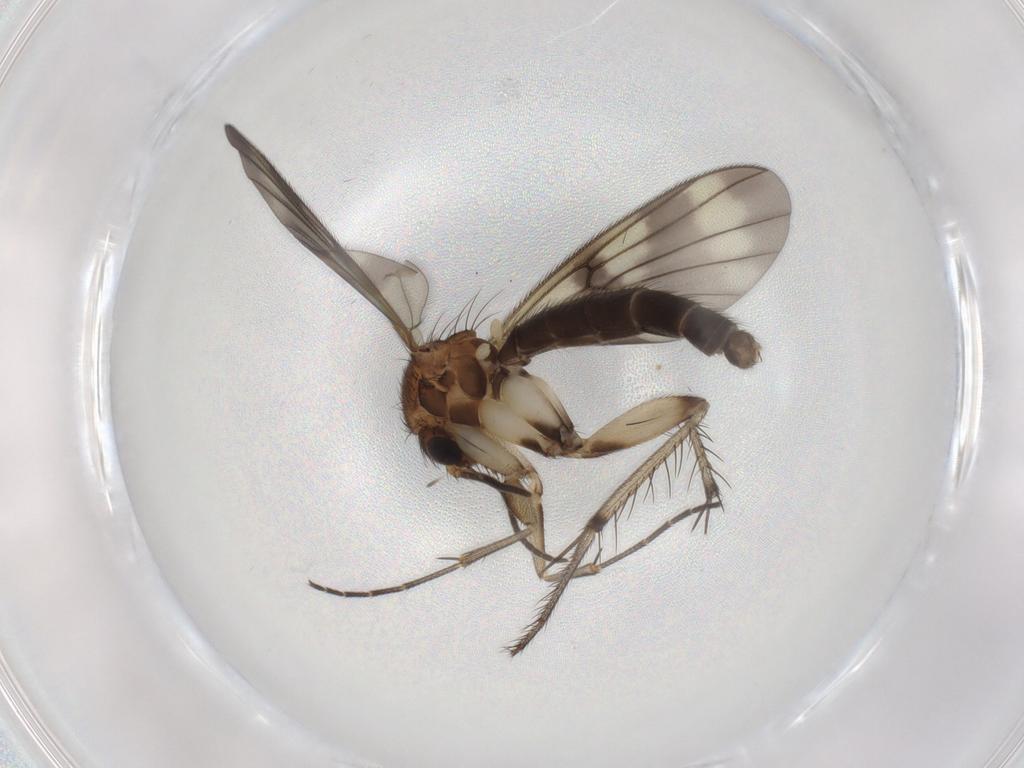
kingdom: Animalia
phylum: Arthropoda
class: Insecta
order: Diptera
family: Mycetophilidae
